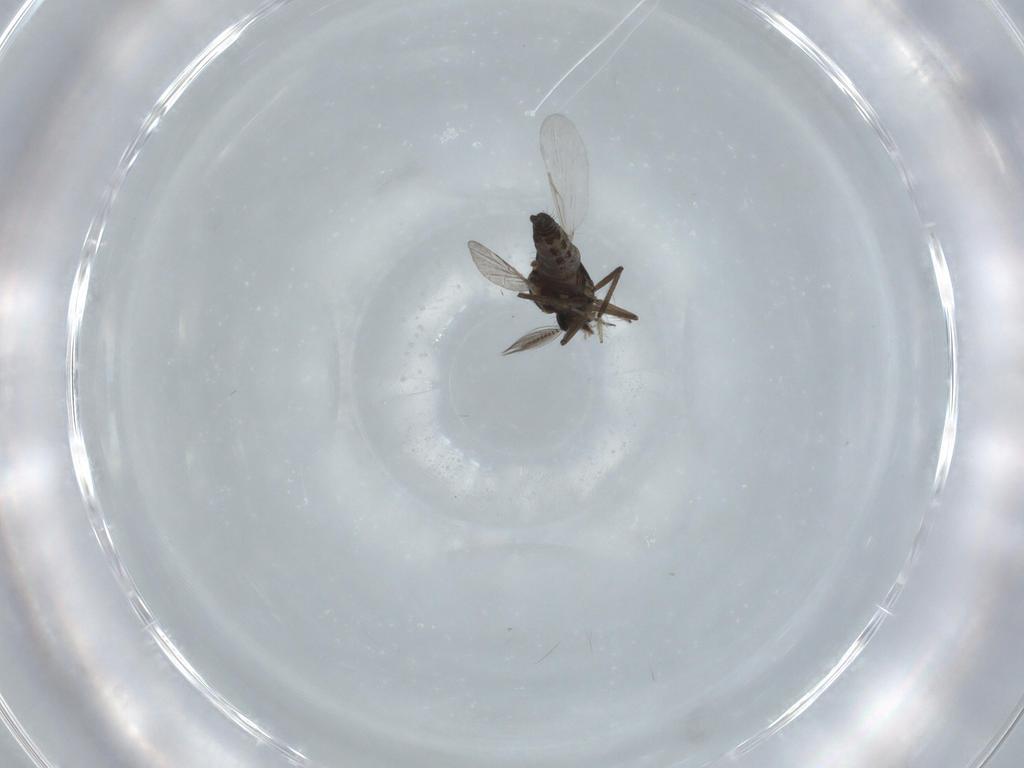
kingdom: Animalia
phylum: Arthropoda
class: Insecta
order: Diptera
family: Ceratopogonidae
